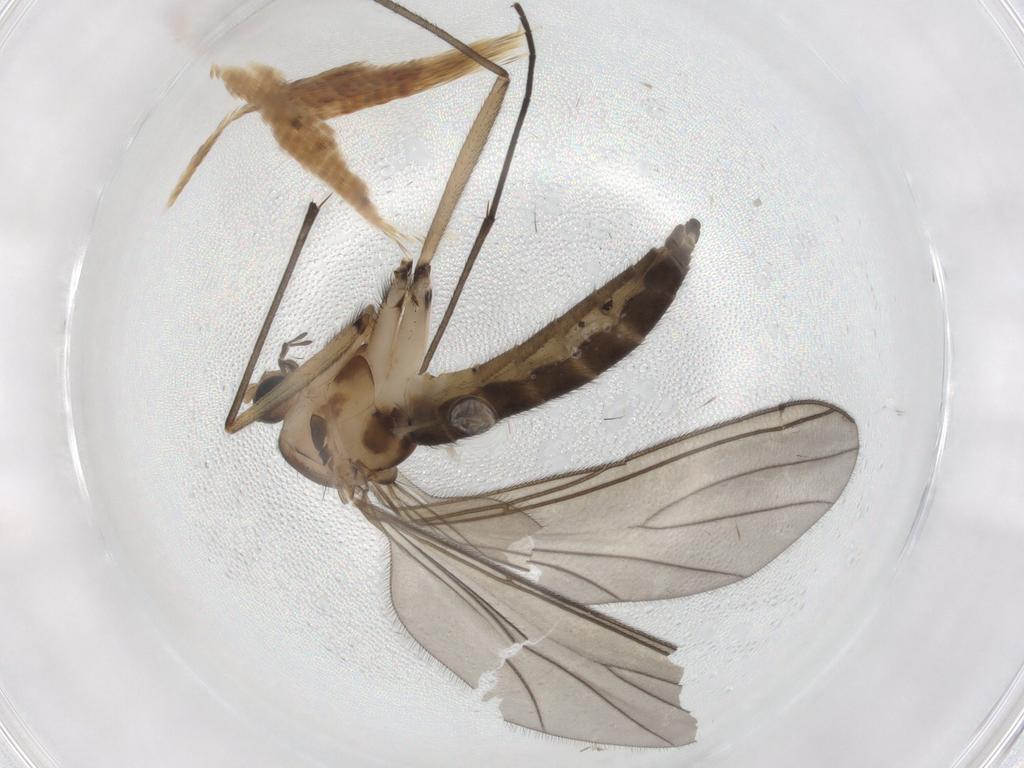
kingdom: Animalia
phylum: Arthropoda
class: Insecta
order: Diptera
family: Sciaridae
